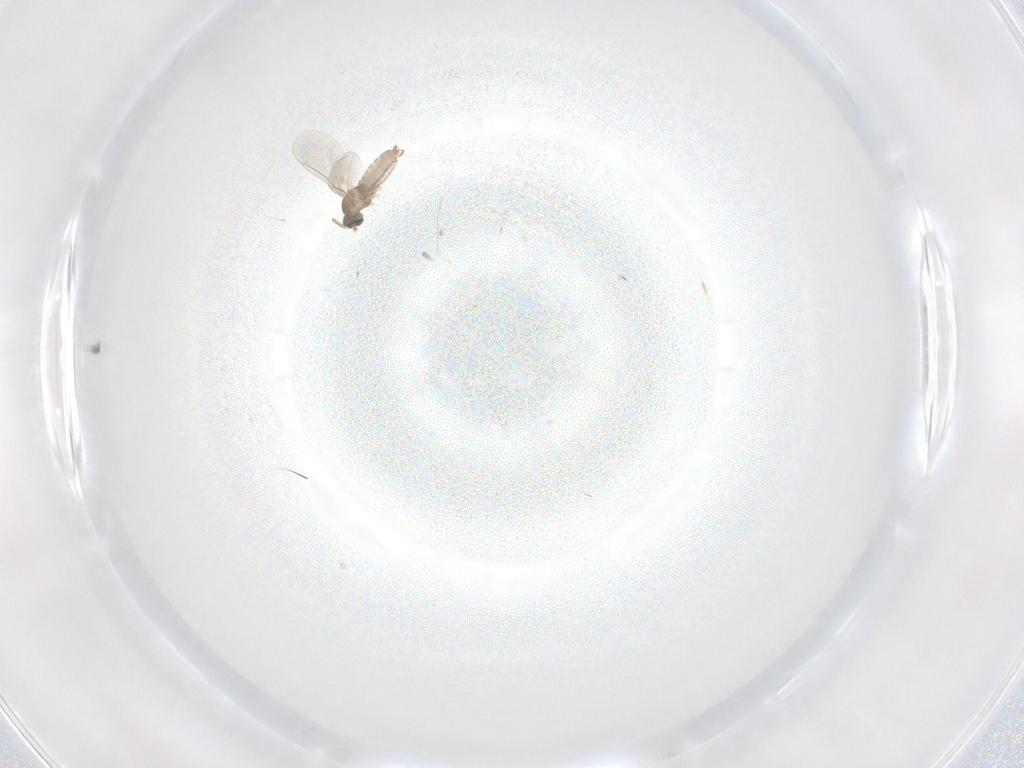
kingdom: Animalia
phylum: Arthropoda
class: Insecta
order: Diptera
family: Cecidomyiidae
